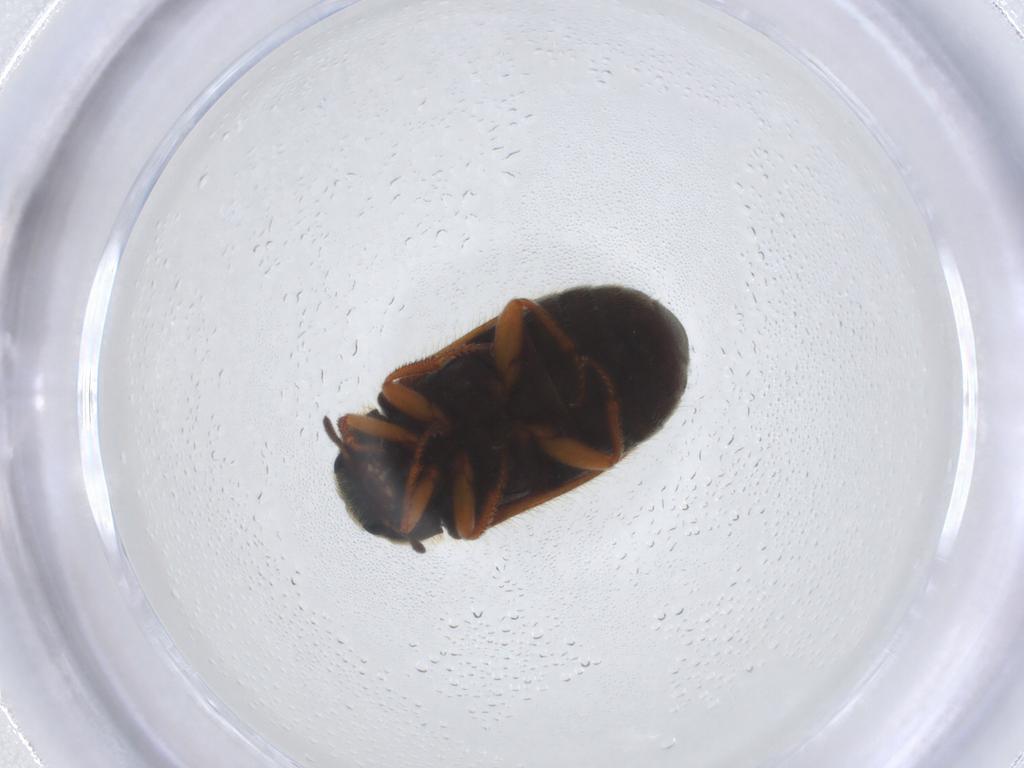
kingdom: Animalia
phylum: Arthropoda
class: Insecta
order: Coleoptera
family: Melyridae
